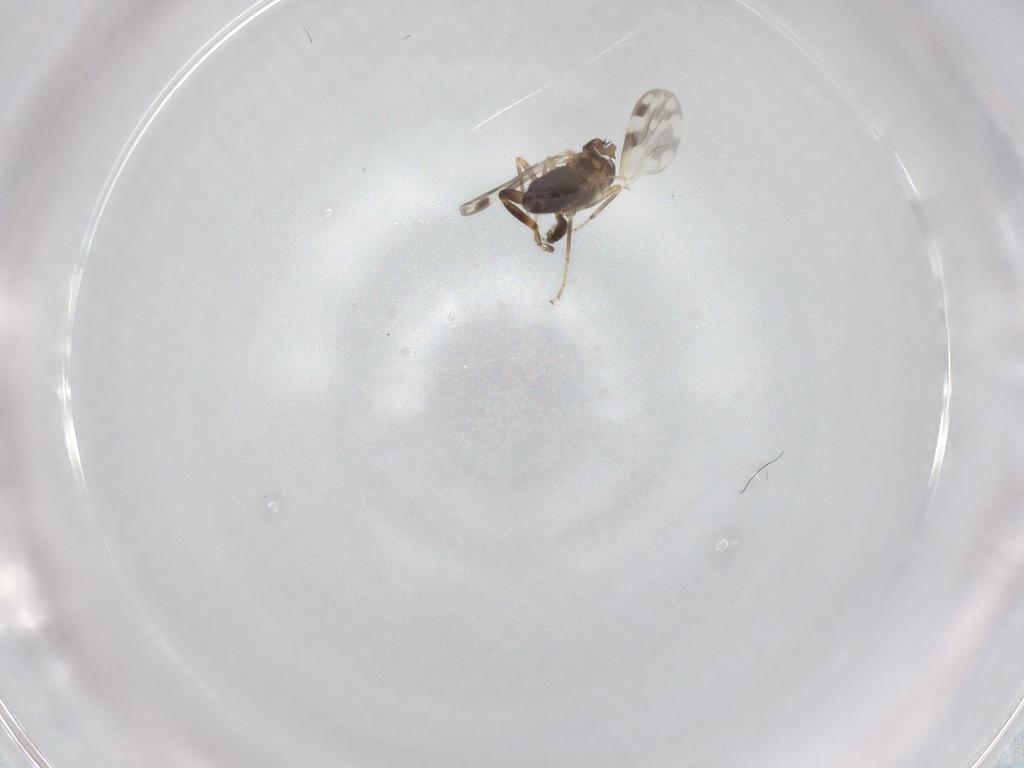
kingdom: Animalia
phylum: Arthropoda
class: Insecta
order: Diptera
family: Ceratopogonidae
